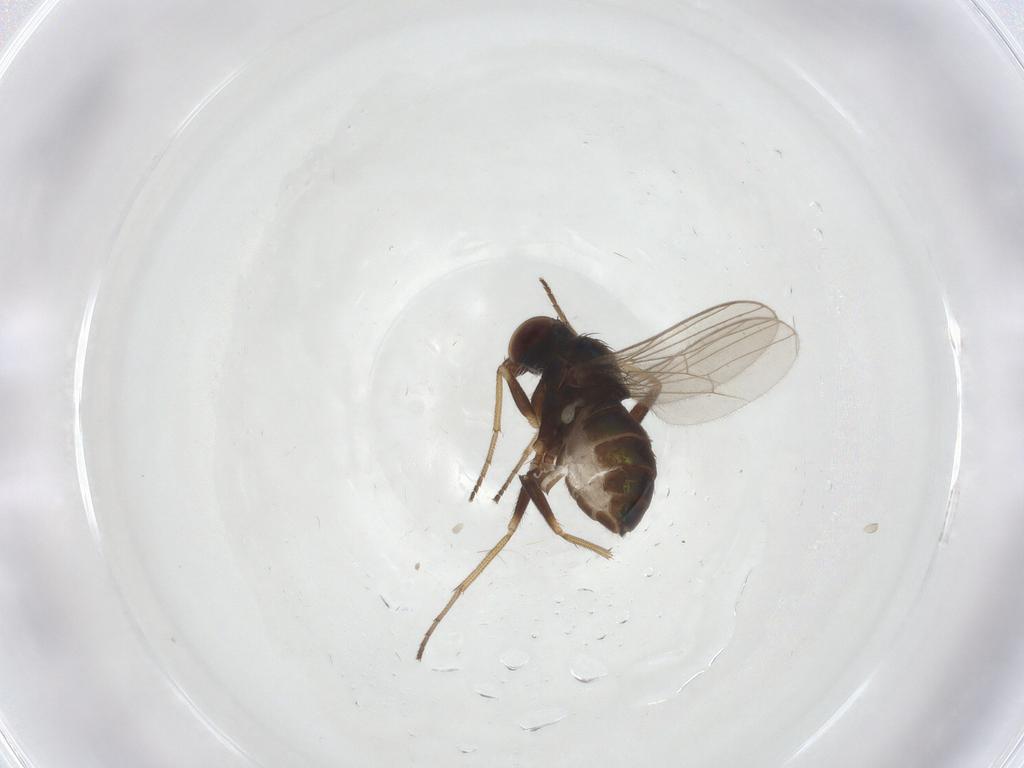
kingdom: Animalia
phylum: Arthropoda
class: Insecta
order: Diptera
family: Dolichopodidae
